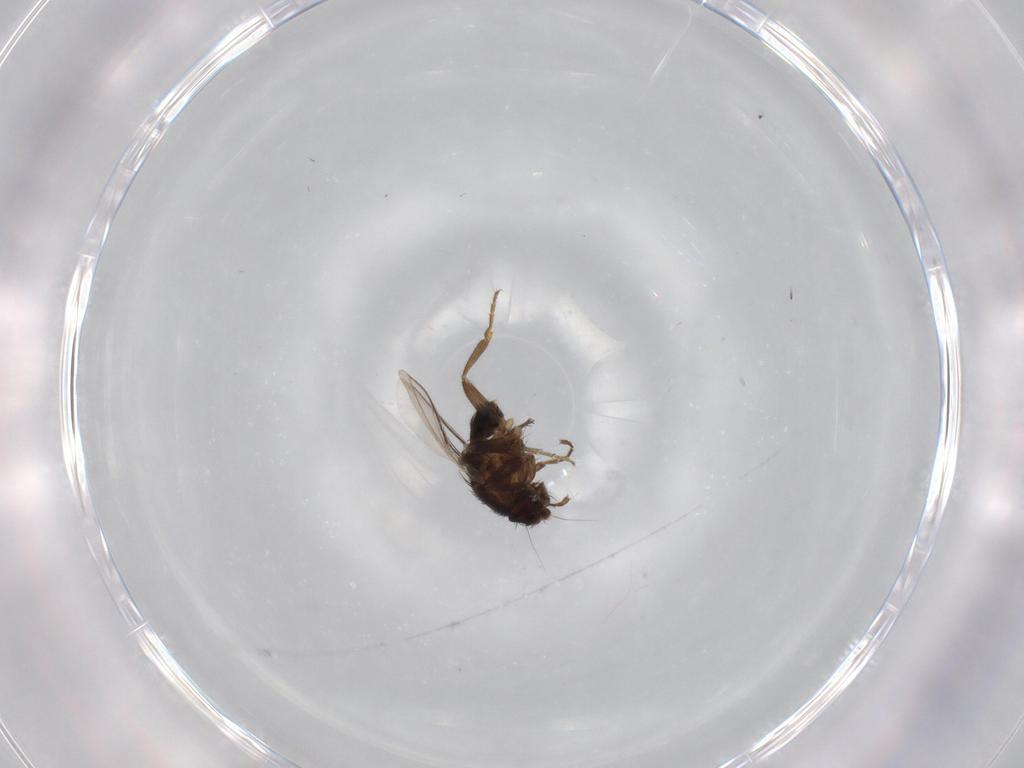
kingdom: Animalia
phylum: Arthropoda
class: Insecta
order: Diptera
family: Sphaeroceridae
